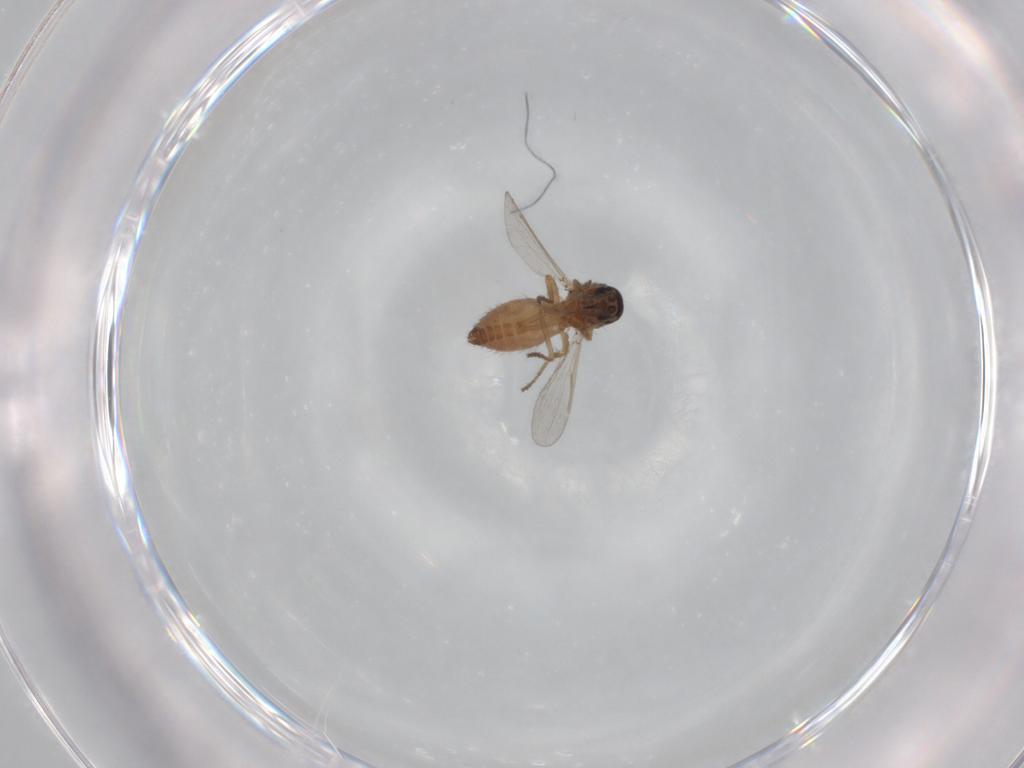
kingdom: Animalia
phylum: Arthropoda
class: Insecta
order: Diptera
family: Ceratopogonidae
